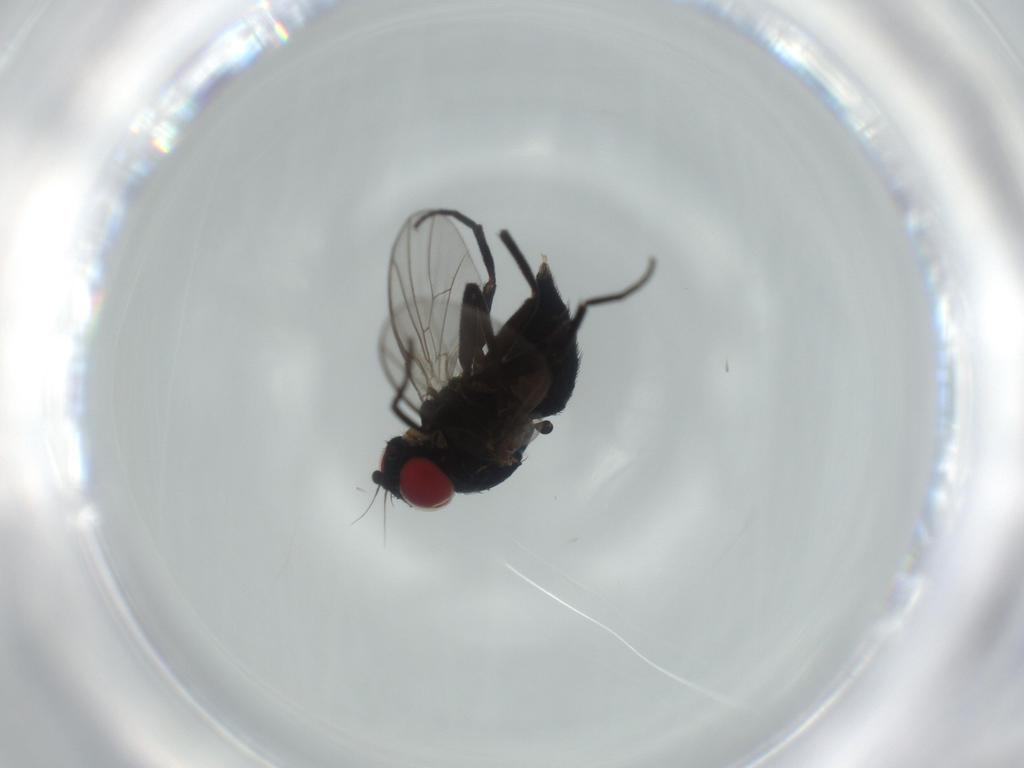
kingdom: Animalia
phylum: Arthropoda
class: Insecta
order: Diptera
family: Agromyzidae
